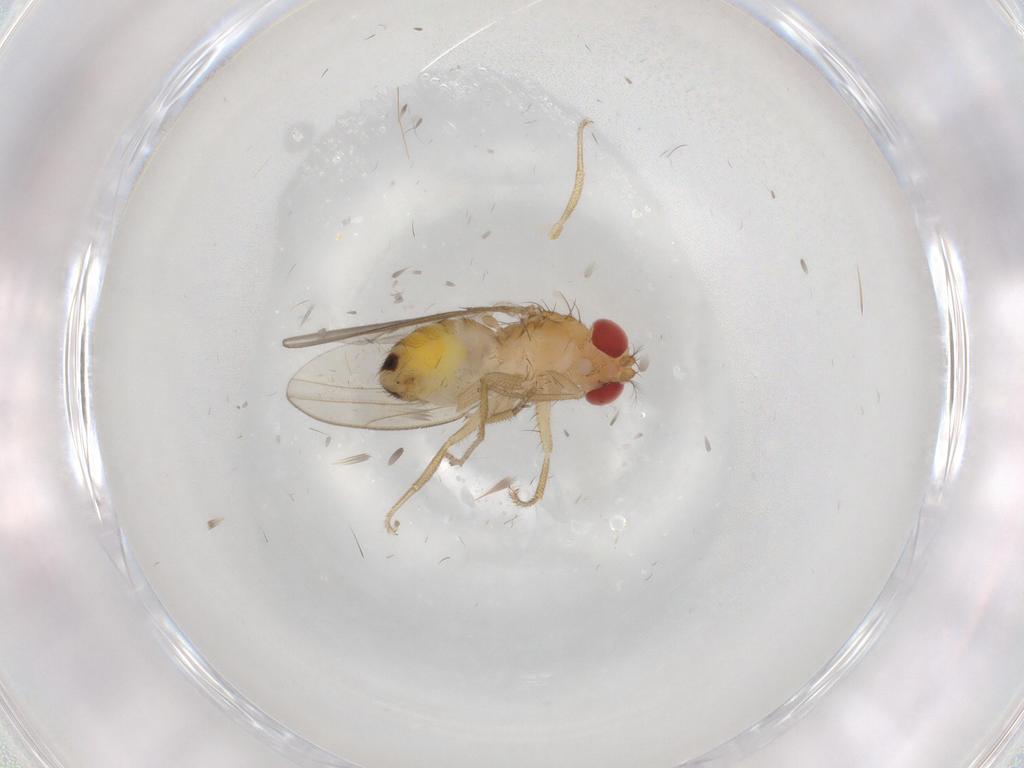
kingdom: Animalia
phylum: Arthropoda
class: Insecta
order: Diptera
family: Drosophilidae
